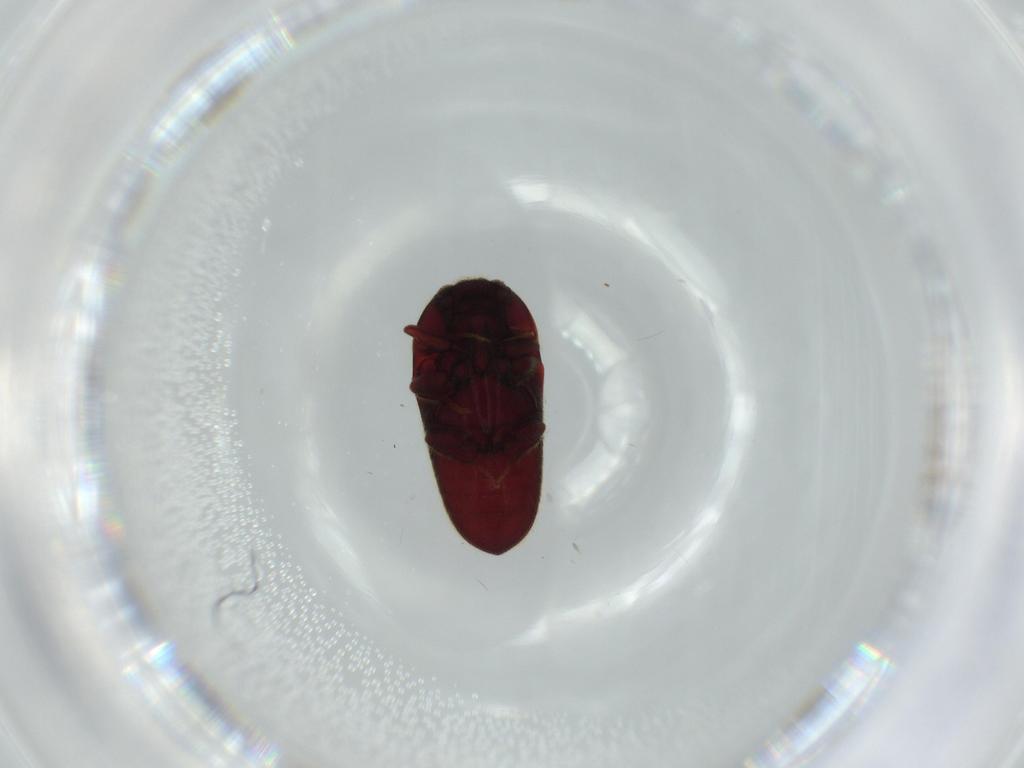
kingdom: Animalia
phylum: Arthropoda
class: Insecta
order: Coleoptera
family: Throscidae
